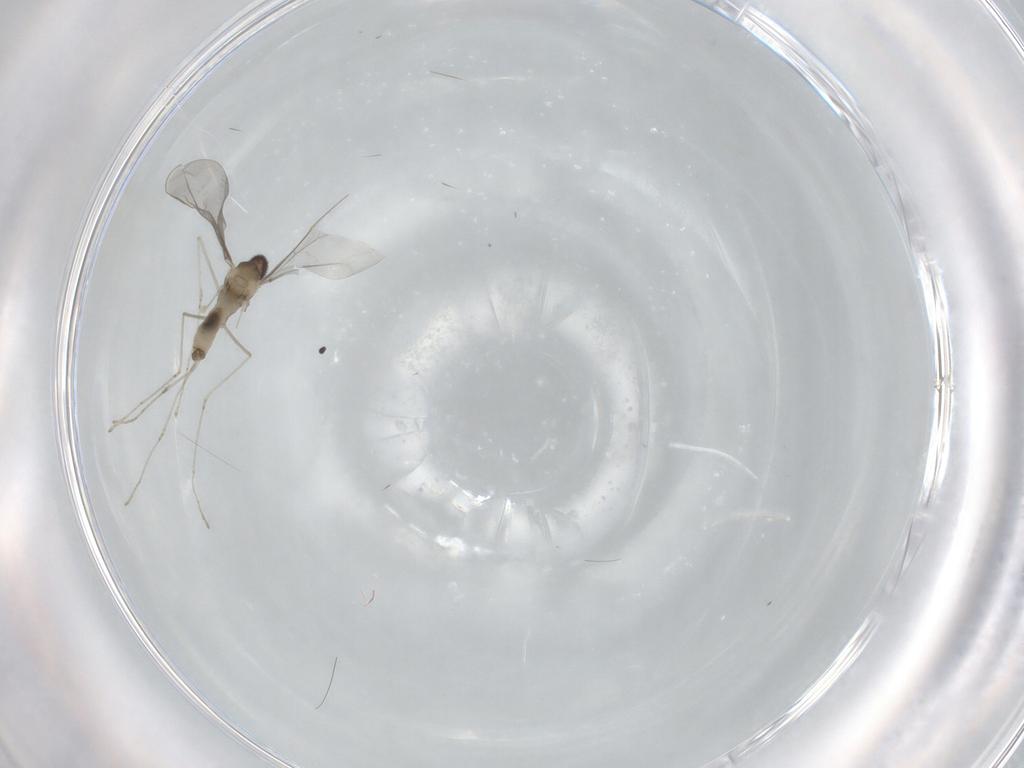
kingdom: Animalia
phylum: Arthropoda
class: Insecta
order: Diptera
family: Cecidomyiidae
